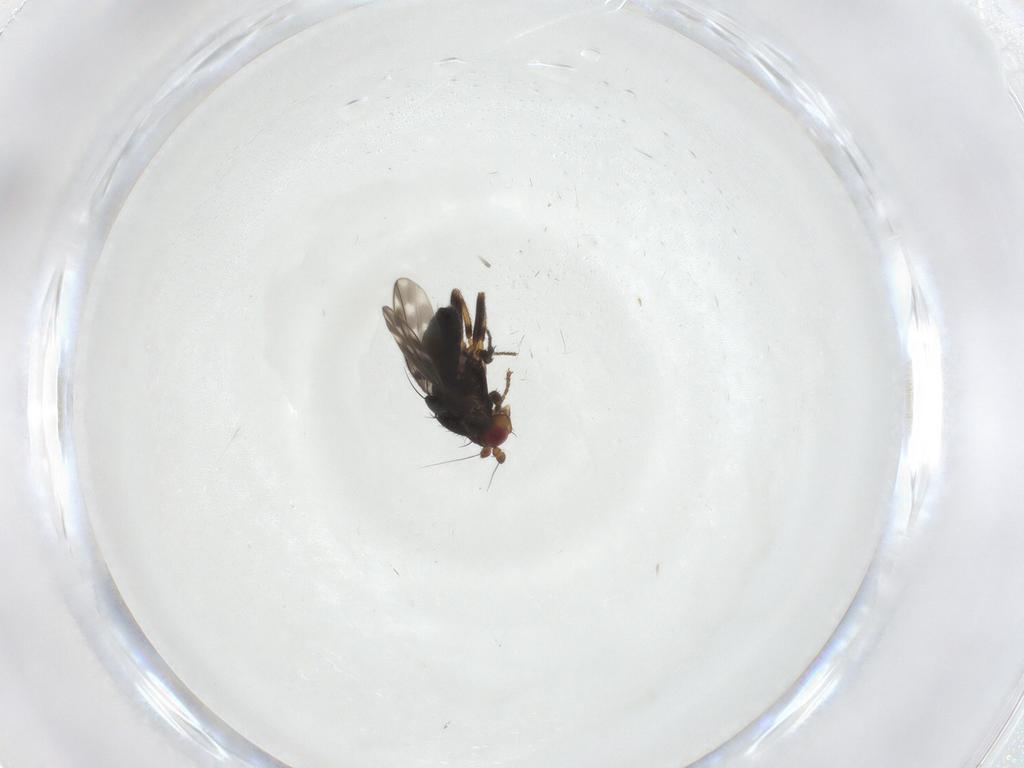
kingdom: Animalia
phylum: Arthropoda
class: Insecta
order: Diptera
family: Sphaeroceridae
